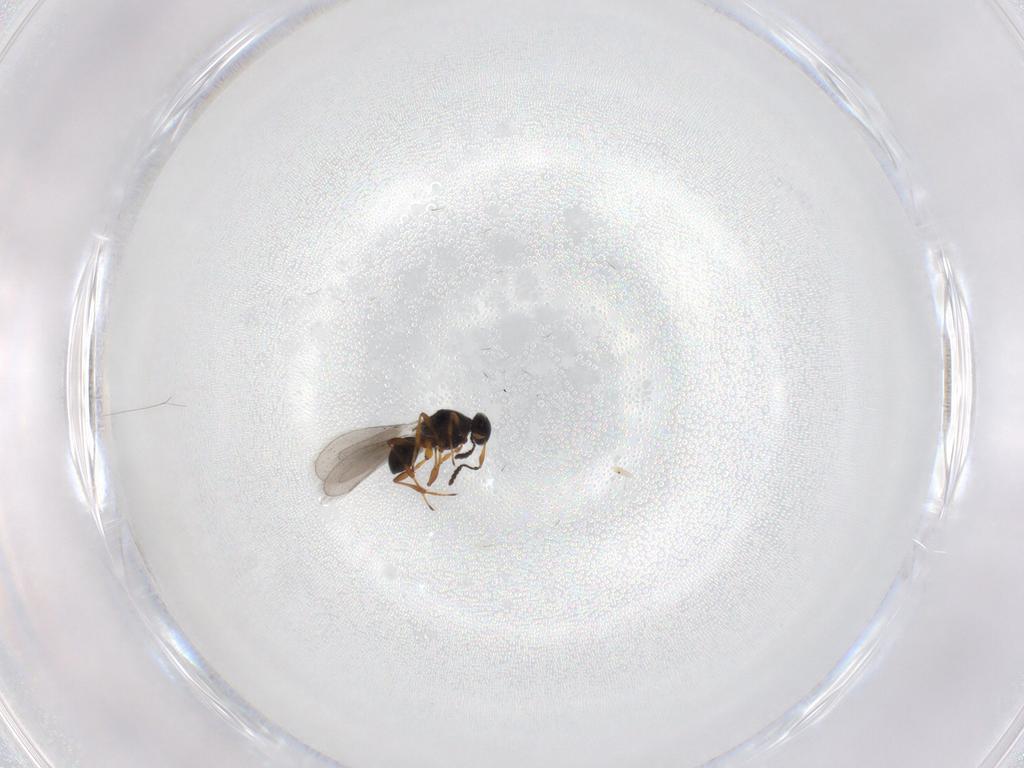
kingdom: Animalia
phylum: Arthropoda
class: Insecta
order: Hymenoptera
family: Platygastridae
